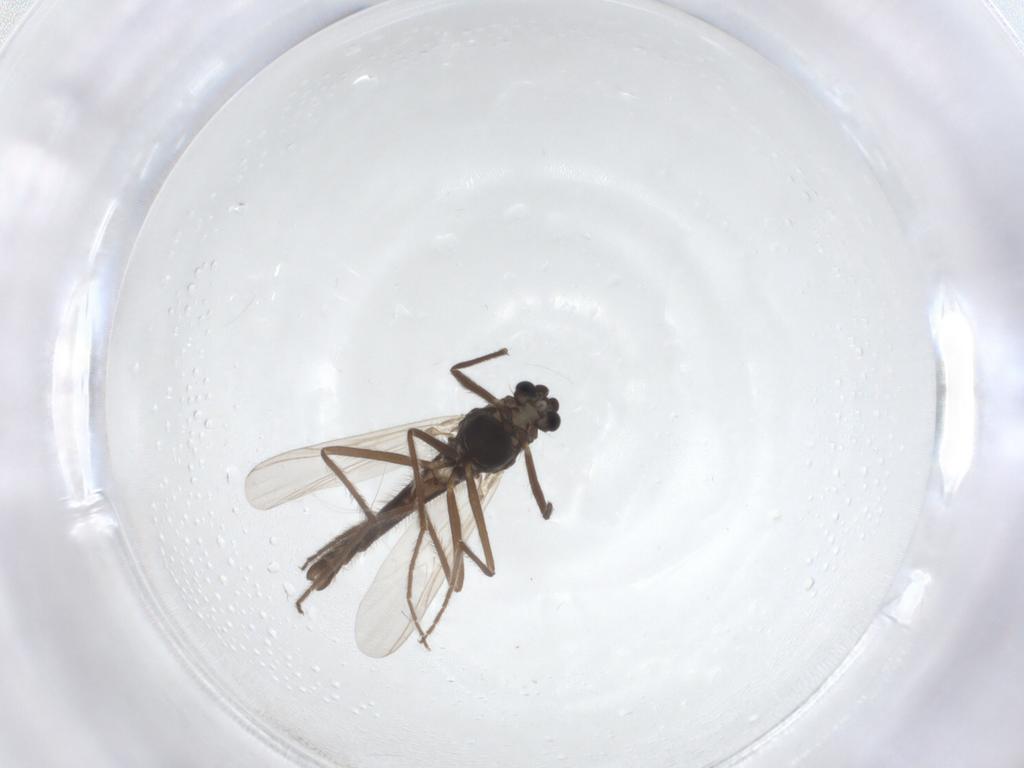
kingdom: Animalia
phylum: Arthropoda
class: Insecta
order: Diptera
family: Chironomidae
